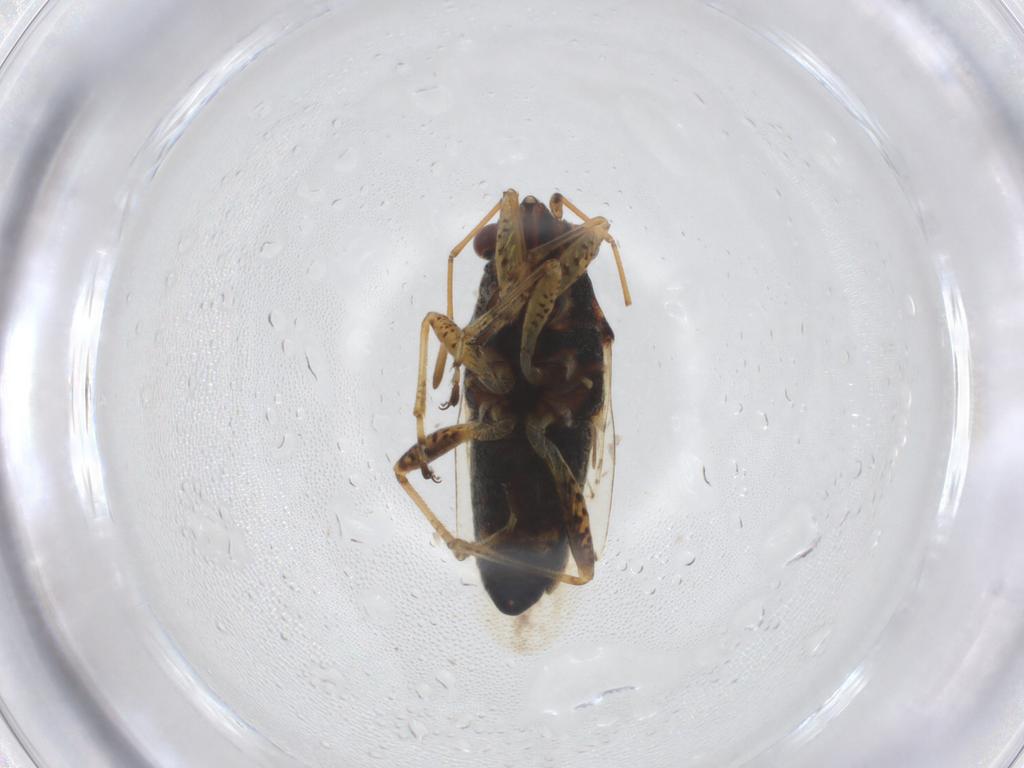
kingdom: Animalia
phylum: Arthropoda
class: Insecta
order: Hemiptera
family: Lygaeidae
